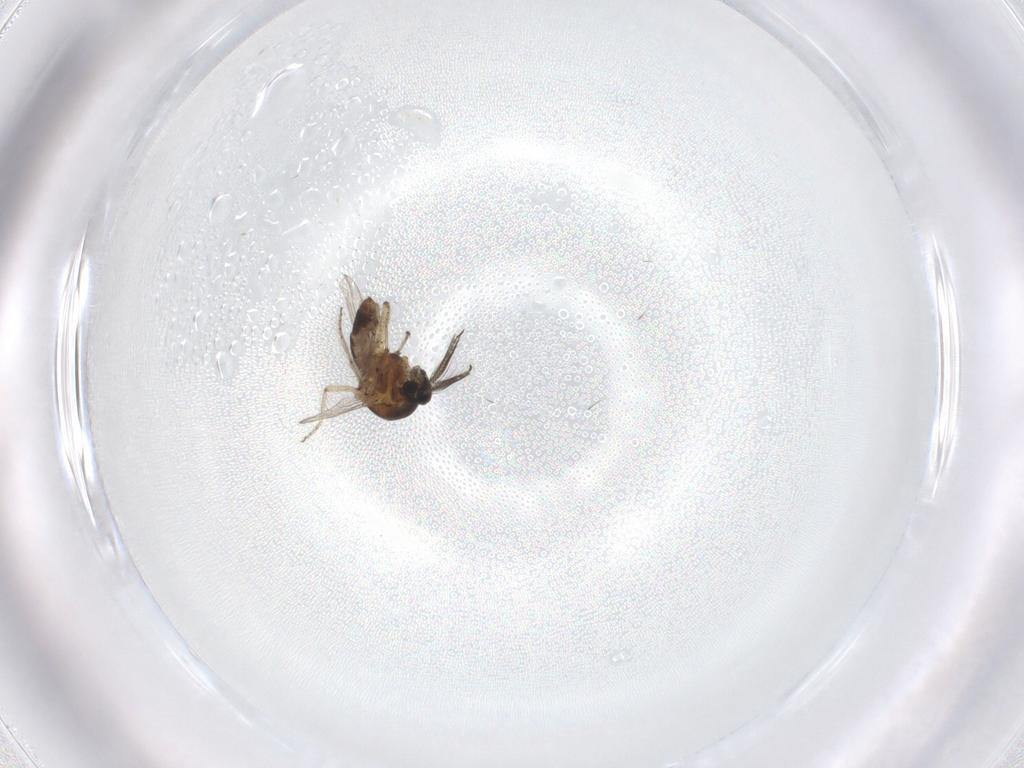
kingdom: Animalia
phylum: Arthropoda
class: Insecta
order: Diptera
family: Ceratopogonidae
